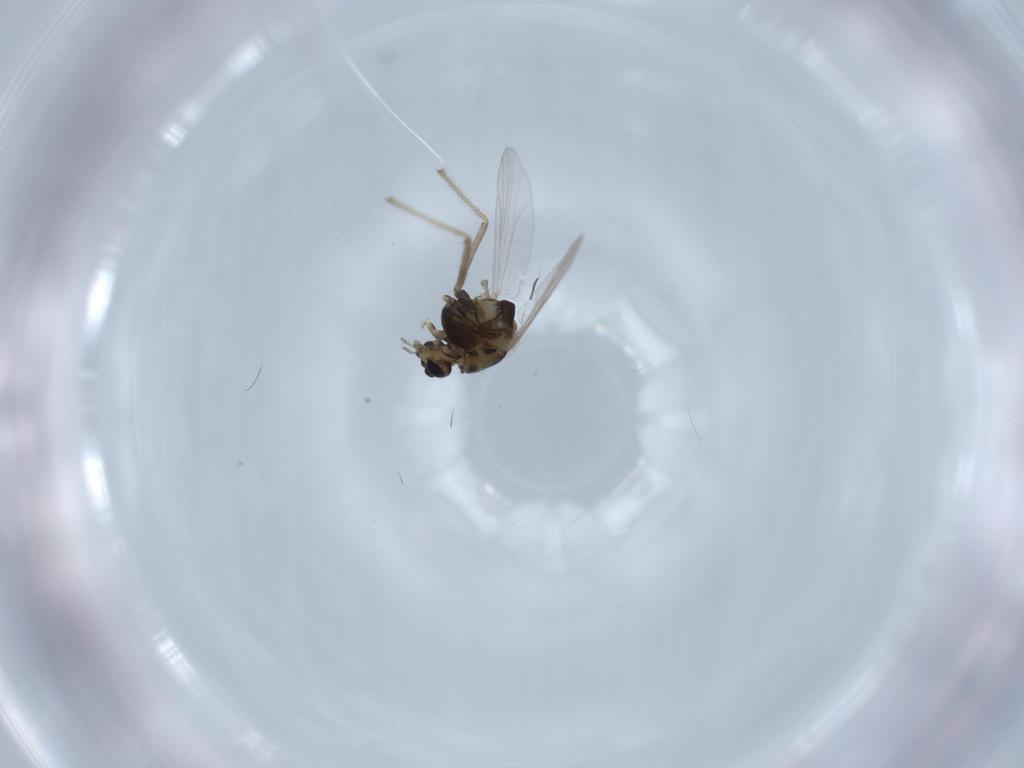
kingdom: Animalia
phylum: Arthropoda
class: Insecta
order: Diptera
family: Chironomidae
